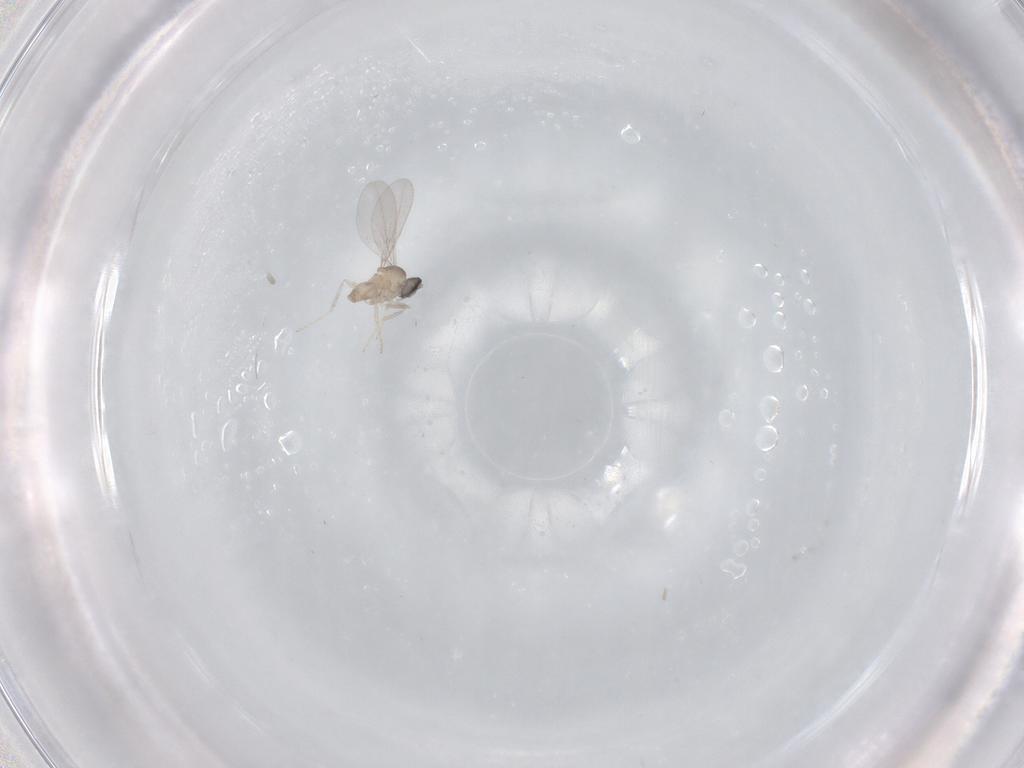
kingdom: Animalia
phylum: Arthropoda
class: Insecta
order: Diptera
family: Cecidomyiidae
